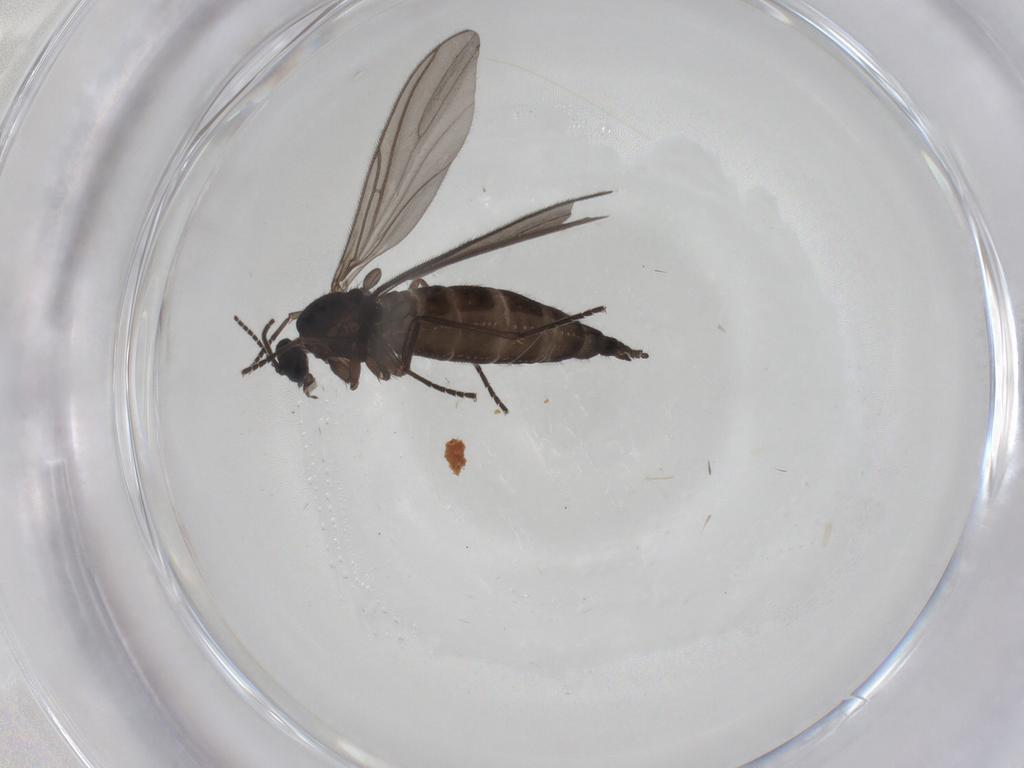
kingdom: Animalia
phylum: Arthropoda
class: Insecta
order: Diptera
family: Sciaridae
